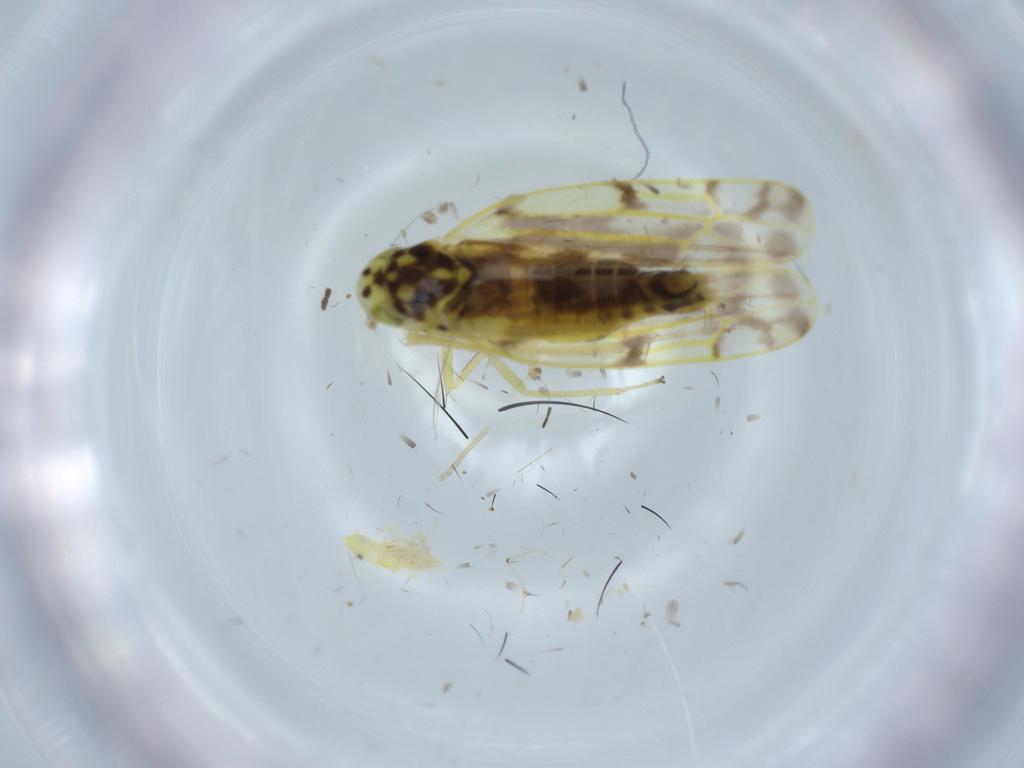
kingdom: Animalia
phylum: Arthropoda
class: Insecta
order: Hemiptera
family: Cicadellidae
